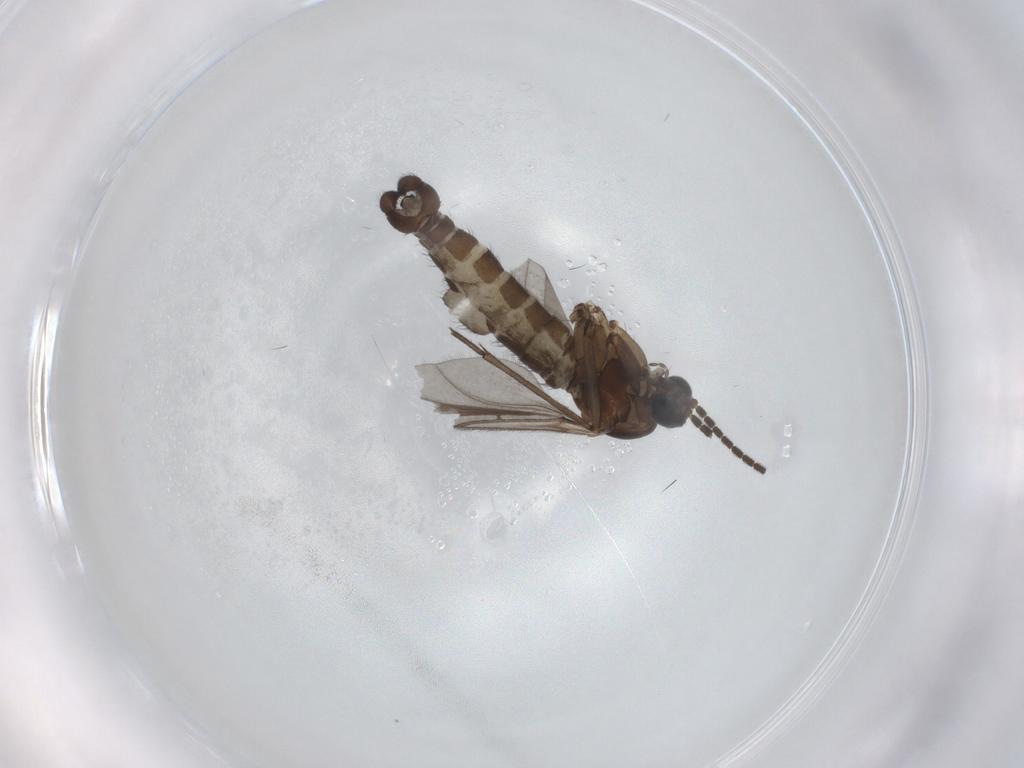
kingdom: Animalia
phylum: Arthropoda
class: Insecta
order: Diptera
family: Sciaridae
